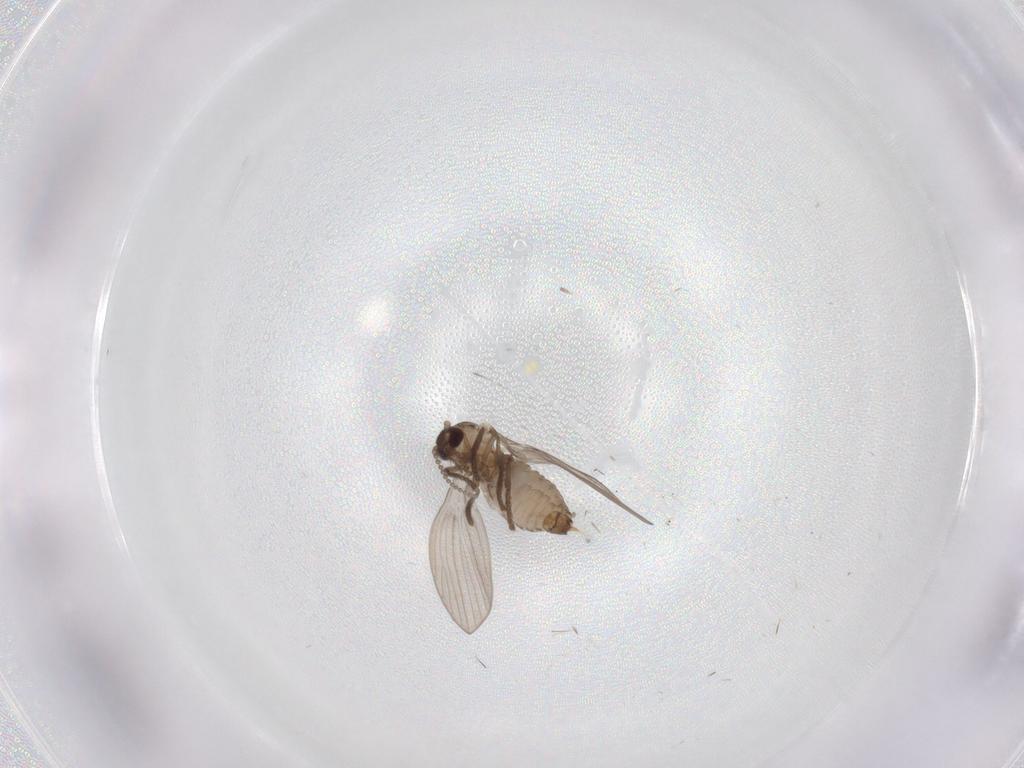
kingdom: Animalia
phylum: Arthropoda
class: Insecta
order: Diptera
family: Psychodidae
